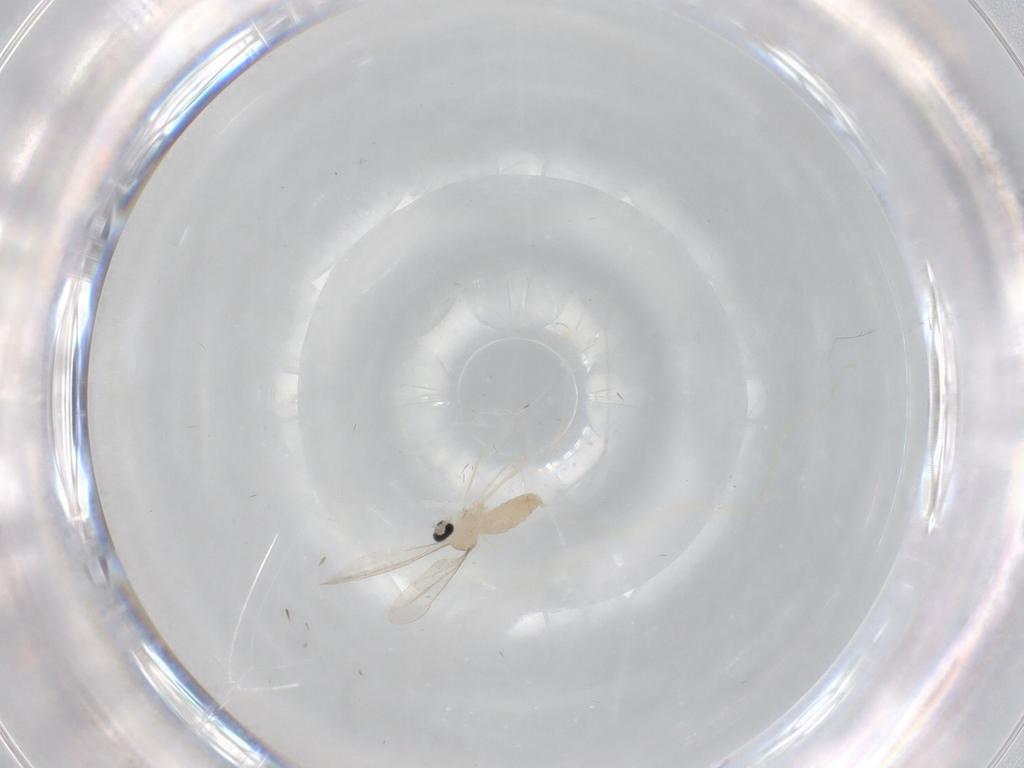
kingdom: Animalia
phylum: Arthropoda
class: Insecta
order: Diptera
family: Cecidomyiidae
